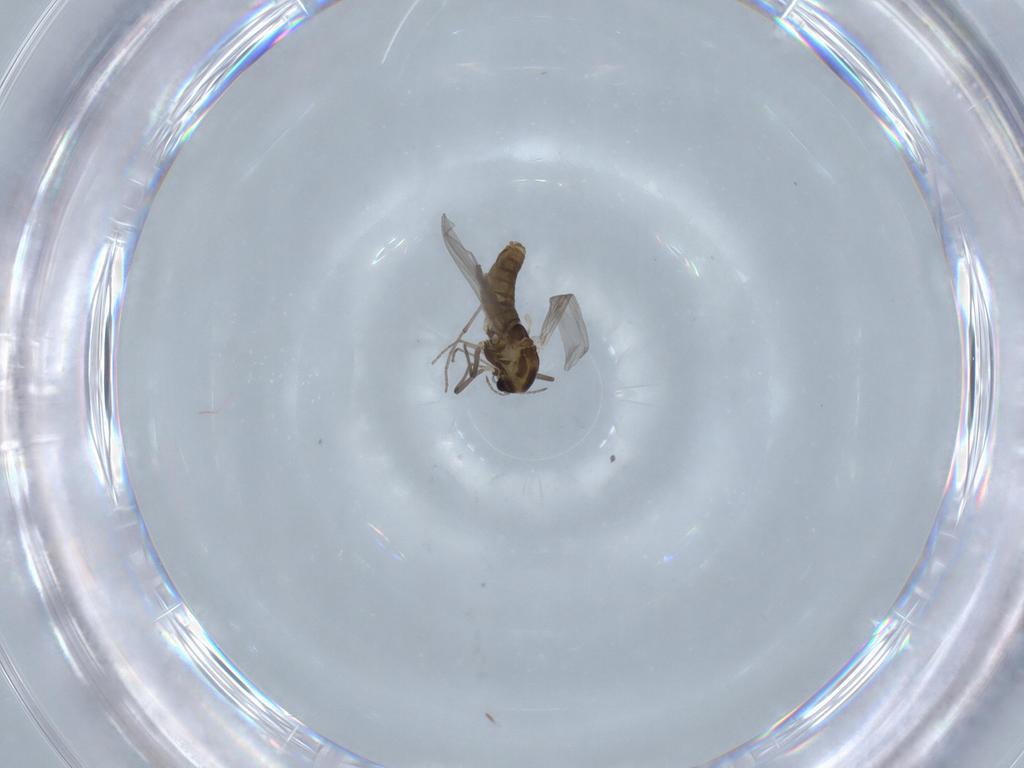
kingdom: Animalia
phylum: Arthropoda
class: Insecta
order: Diptera
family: Chironomidae
